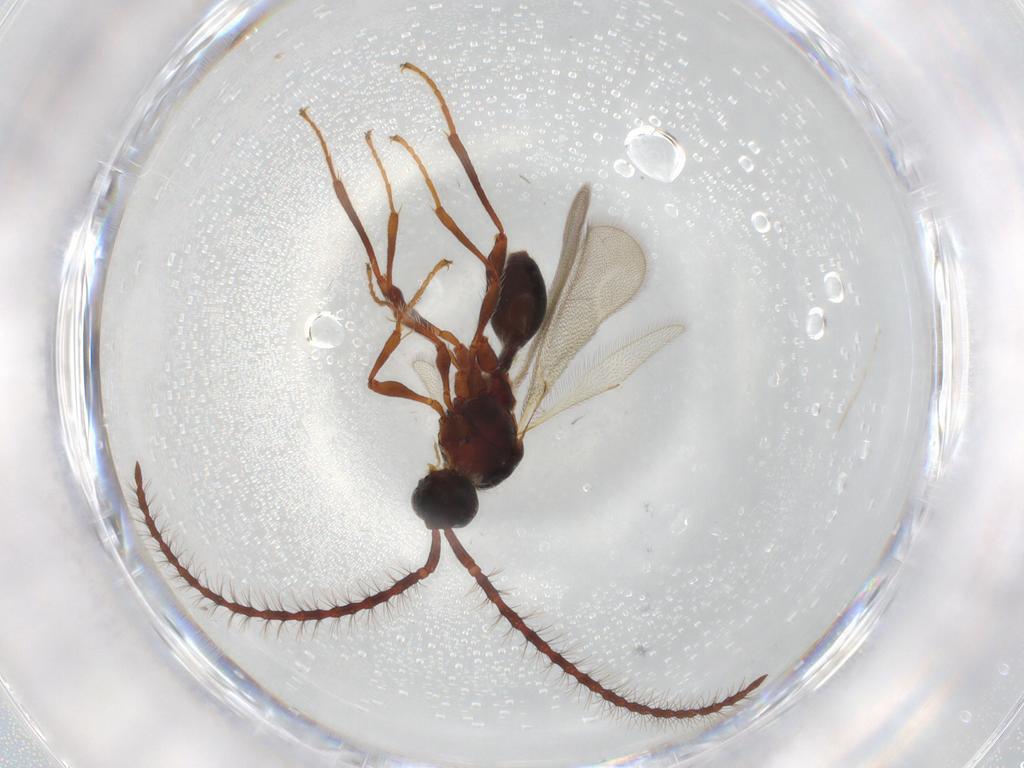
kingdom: Animalia
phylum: Arthropoda
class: Insecta
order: Hymenoptera
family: Diapriidae
